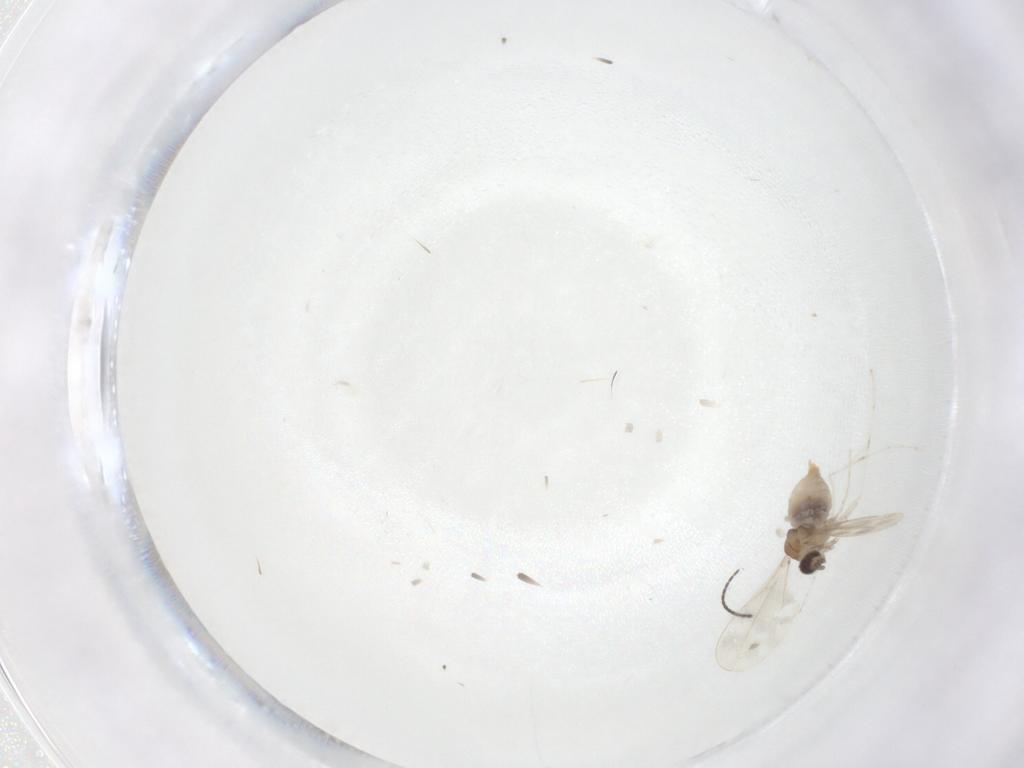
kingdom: Animalia
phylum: Arthropoda
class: Insecta
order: Diptera
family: Cecidomyiidae
